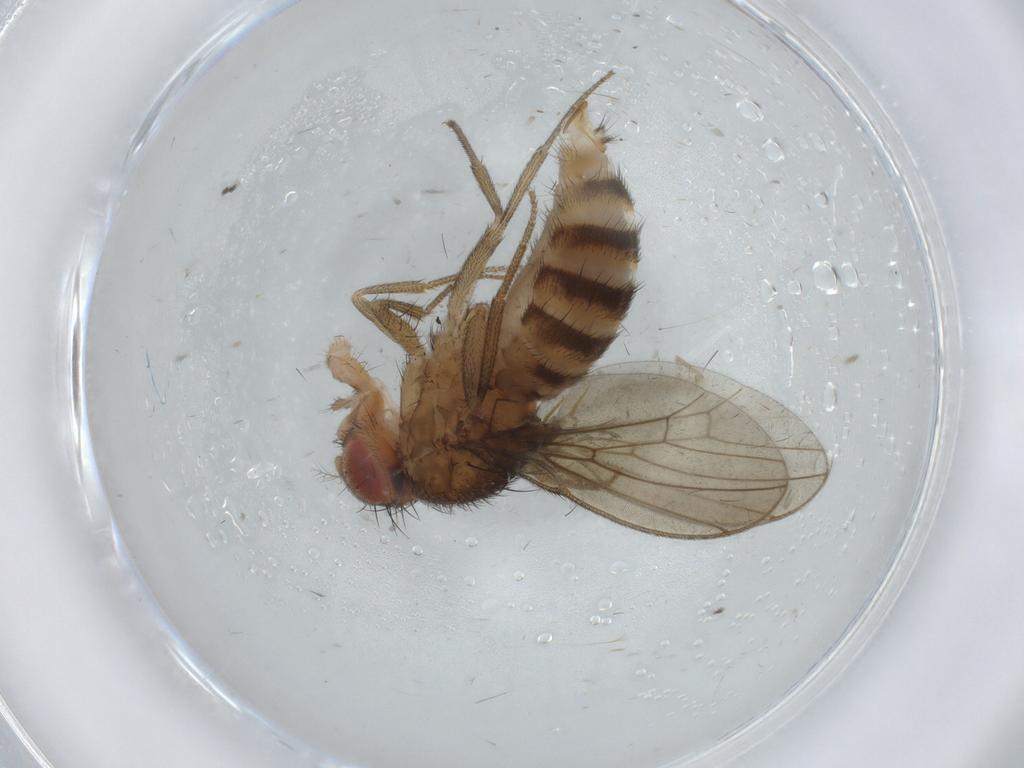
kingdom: Animalia
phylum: Arthropoda
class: Insecta
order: Diptera
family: Drosophilidae
